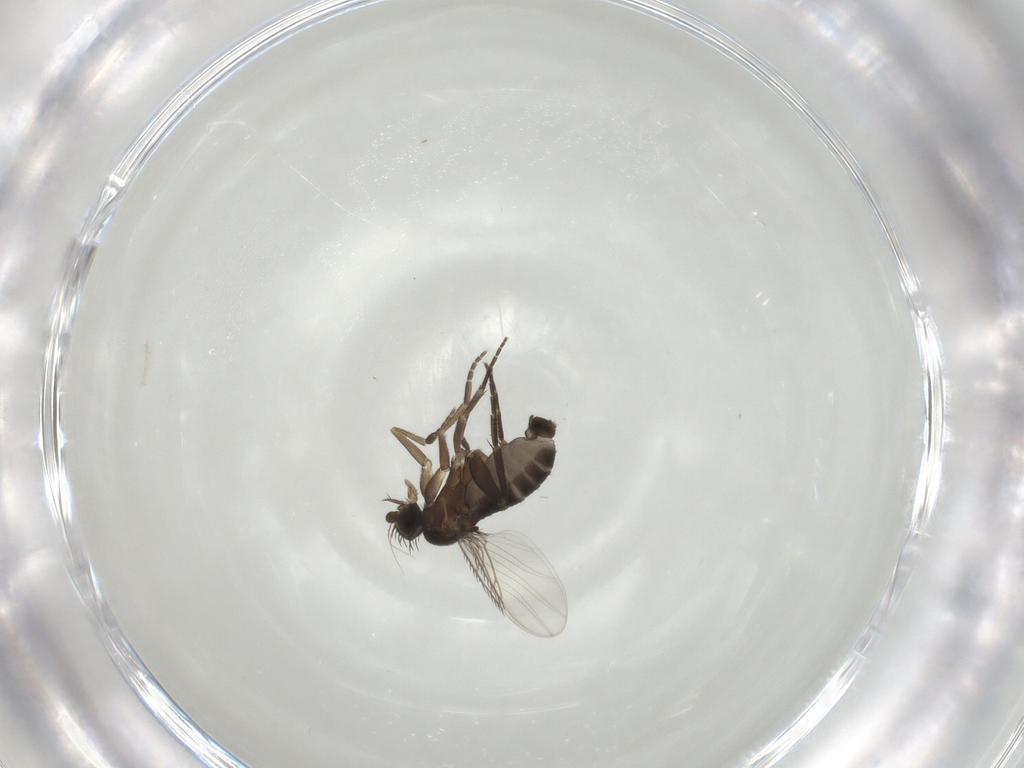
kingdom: Animalia
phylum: Arthropoda
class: Insecta
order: Diptera
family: Phoridae
